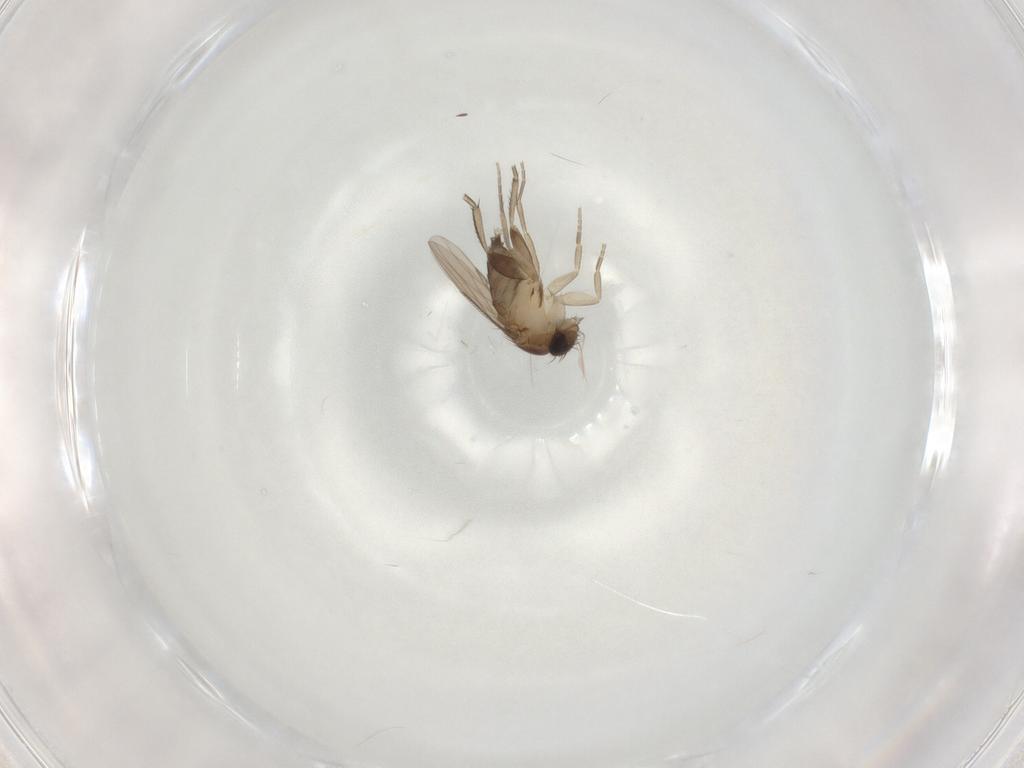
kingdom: Animalia
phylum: Arthropoda
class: Insecta
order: Diptera
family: Phoridae
